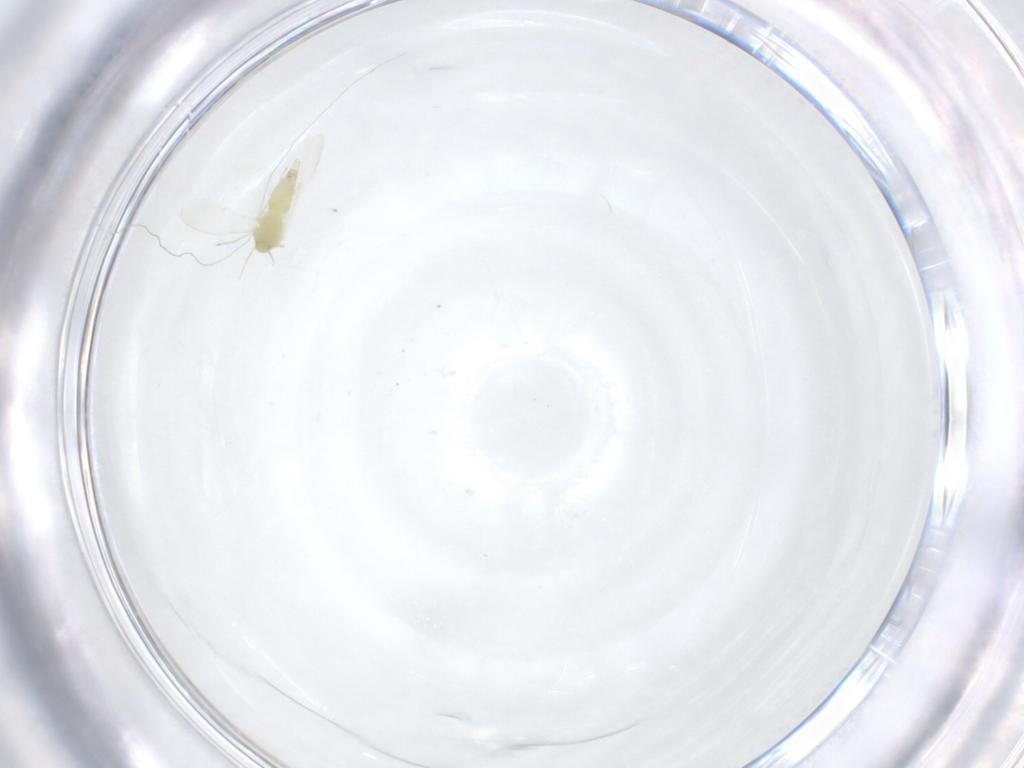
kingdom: Animalia
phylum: Arthropoda
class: Insecta
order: Hemiptera
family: Aleyrodidae
